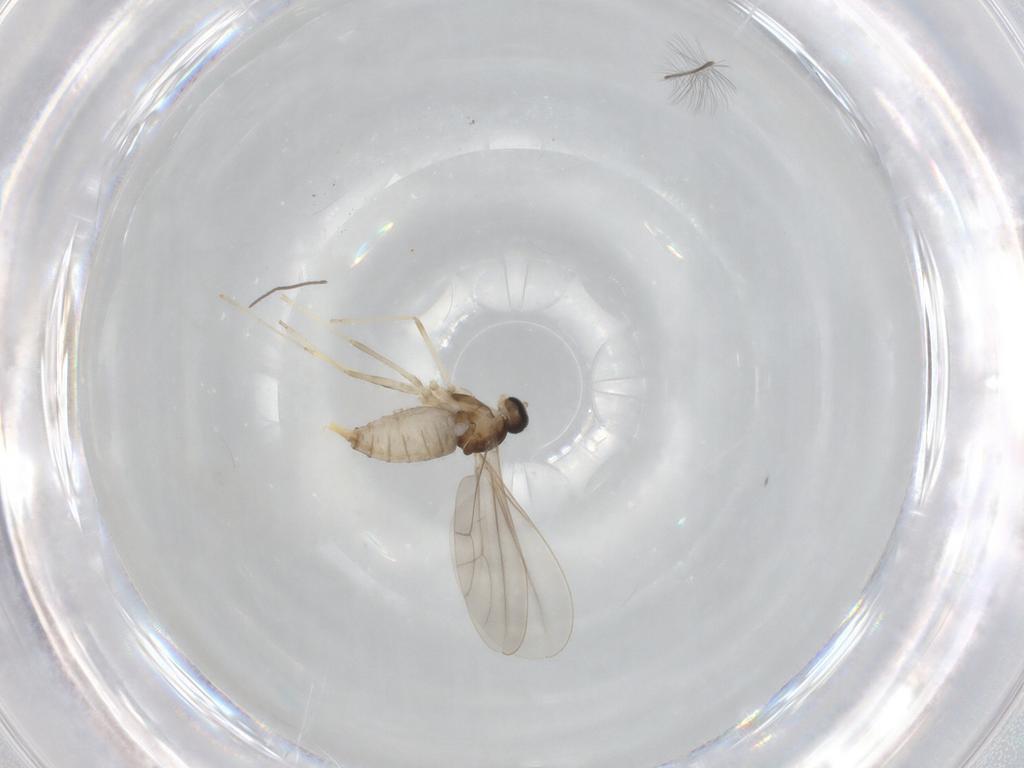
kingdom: Animalia
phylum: Arthropoda
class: Insecta
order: Diptera
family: Cecidomyiidae
